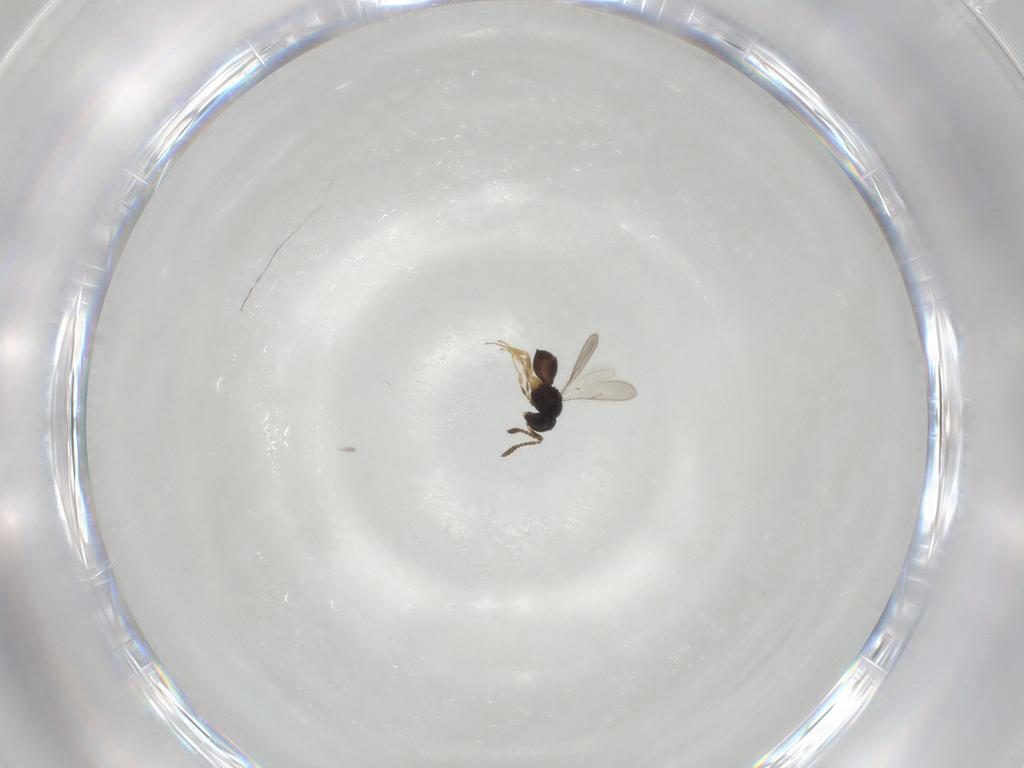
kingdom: Animalia
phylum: Arthropoda
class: Insecta
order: Hymenoptera
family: Scelionidae
